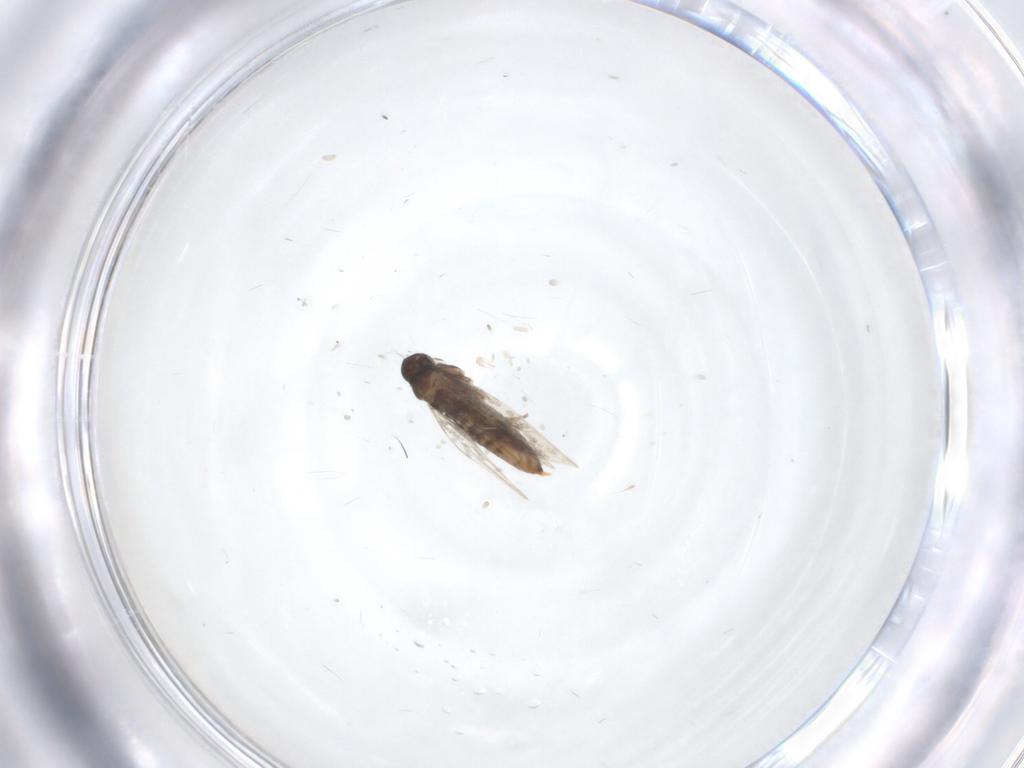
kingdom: Animalia
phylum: Arthropoda
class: Insecta
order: Lepidoptera
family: Heliozelidae
